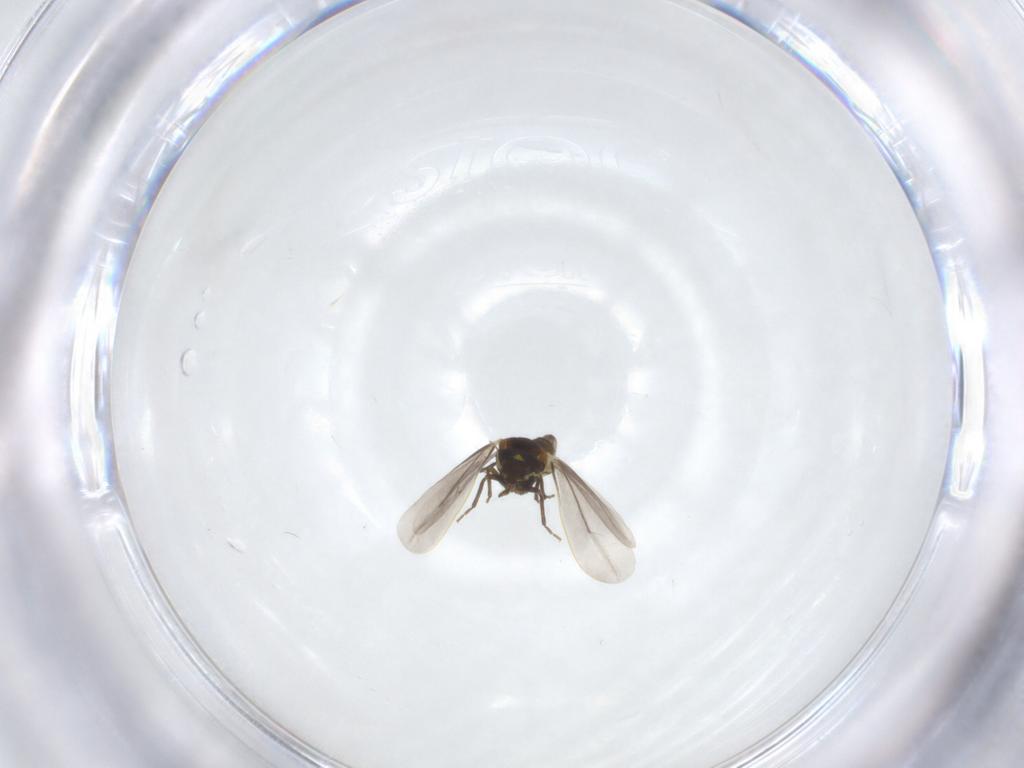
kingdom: Animalia
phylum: Arthropoda
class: Insecta
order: Hemiptera
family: Aleyrodidae
